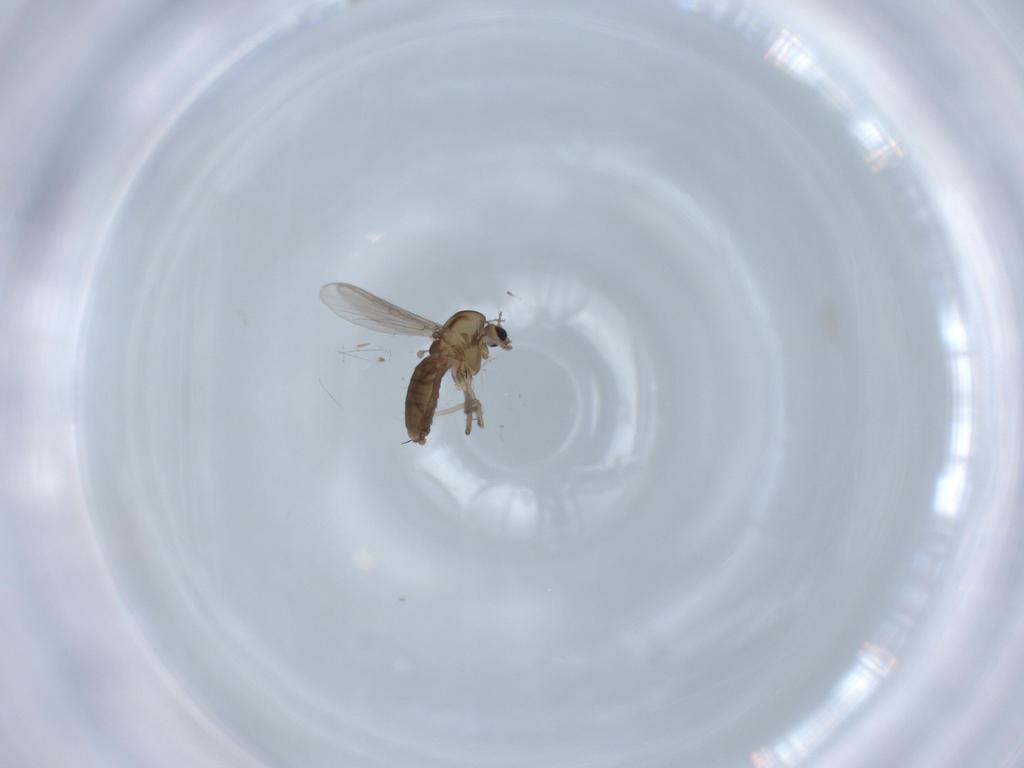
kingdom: Animalia
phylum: Arthropoda
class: Insecta
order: Diptera
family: Chironomidae
